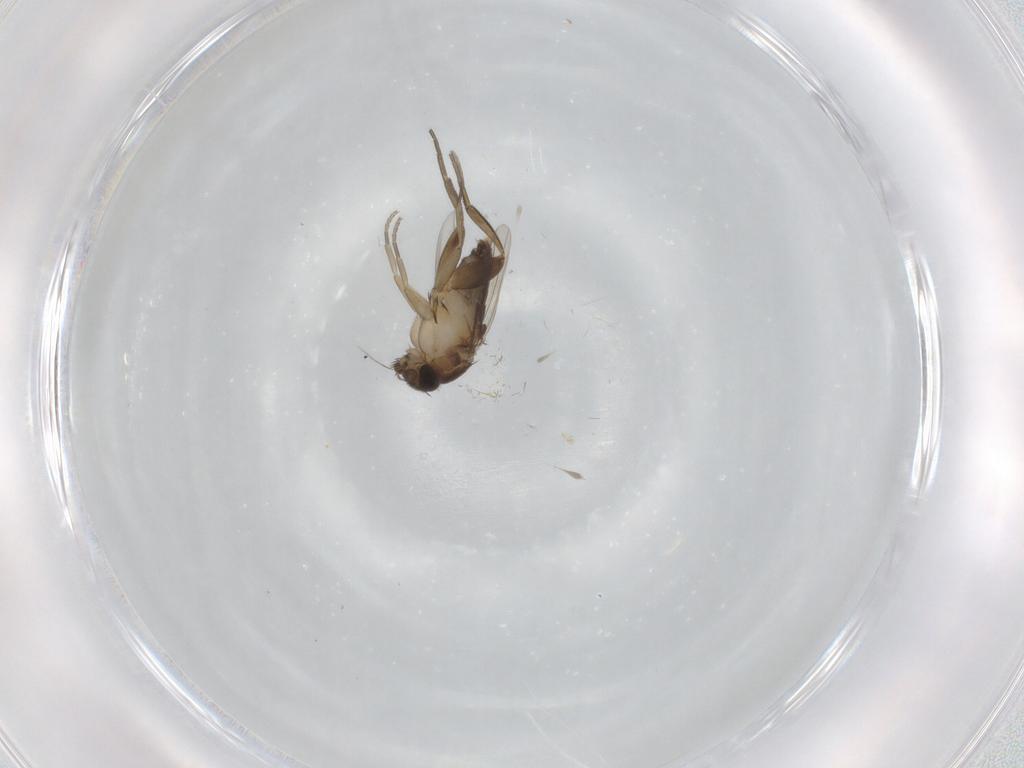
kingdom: Animalia
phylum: Arthropoda
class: Insecta
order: Diptera
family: Phoridae
